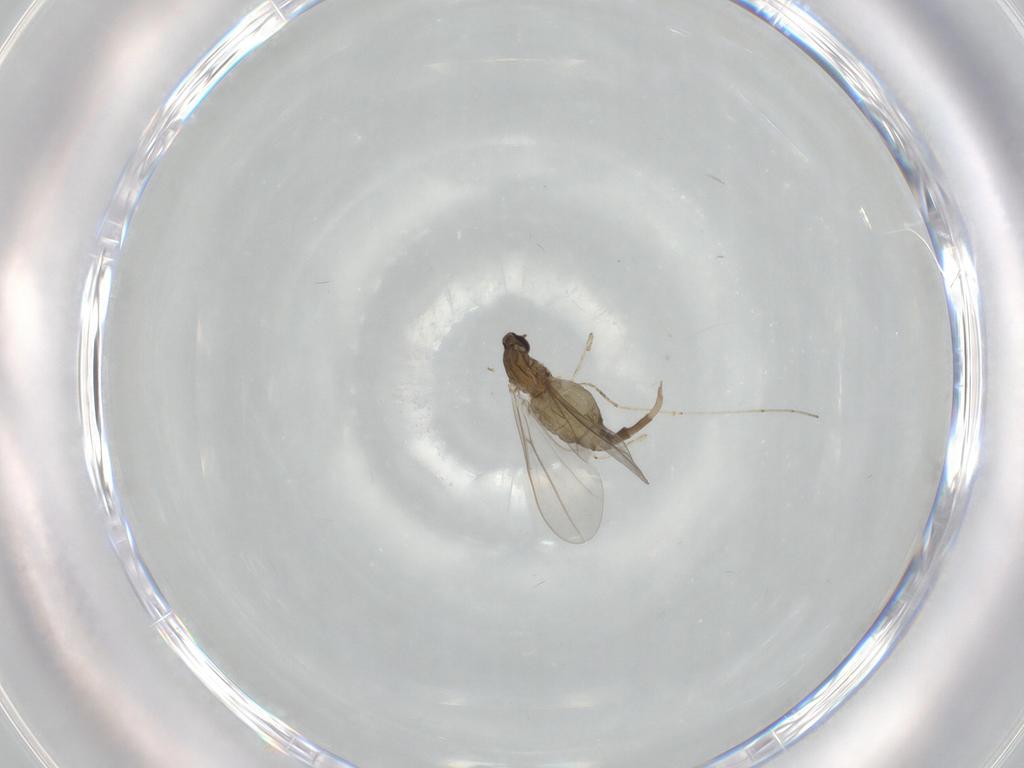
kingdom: Animalia
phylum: Arthropoda
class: Insecta
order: Diptera
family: Cecidomyiidae
